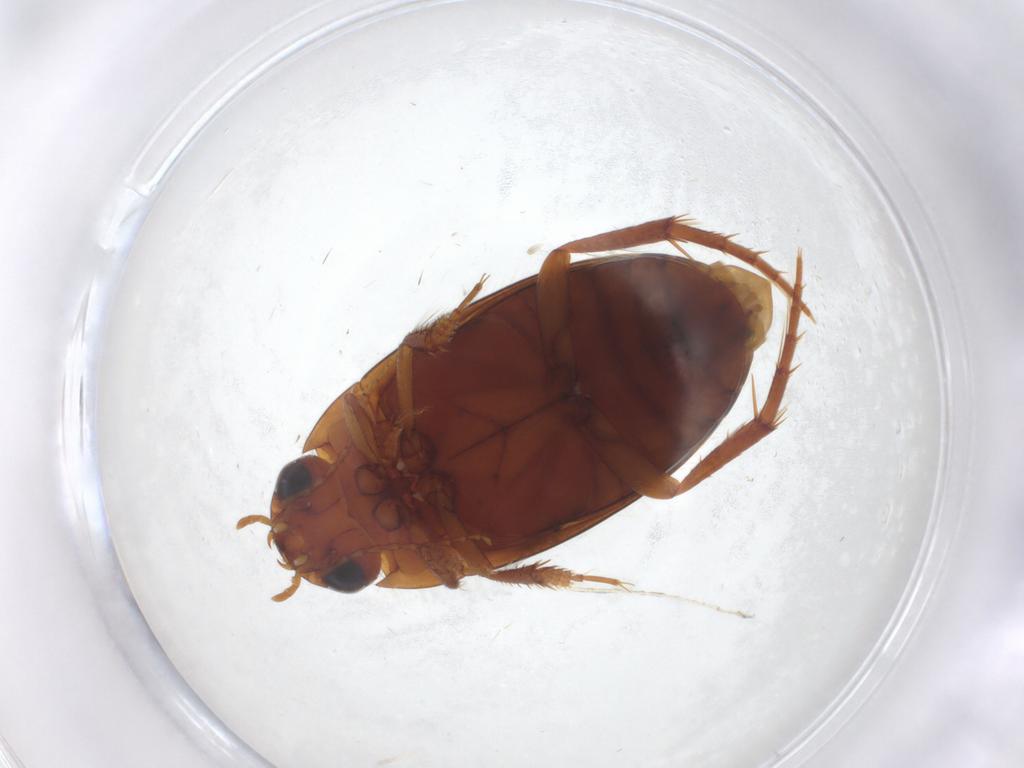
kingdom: Animalia
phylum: Arthropoda
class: Insecta
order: Coleoptera
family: Dytiscidae
